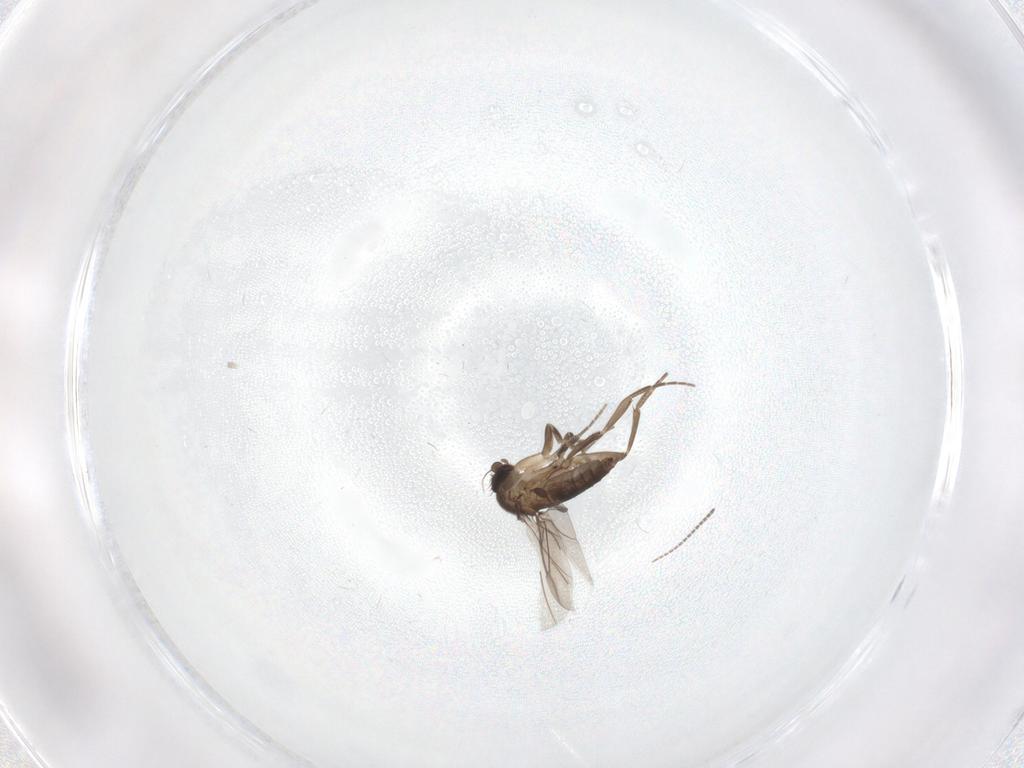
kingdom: Animalia
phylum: Arthropoda
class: Insecta
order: Diptera
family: Sciaridae
